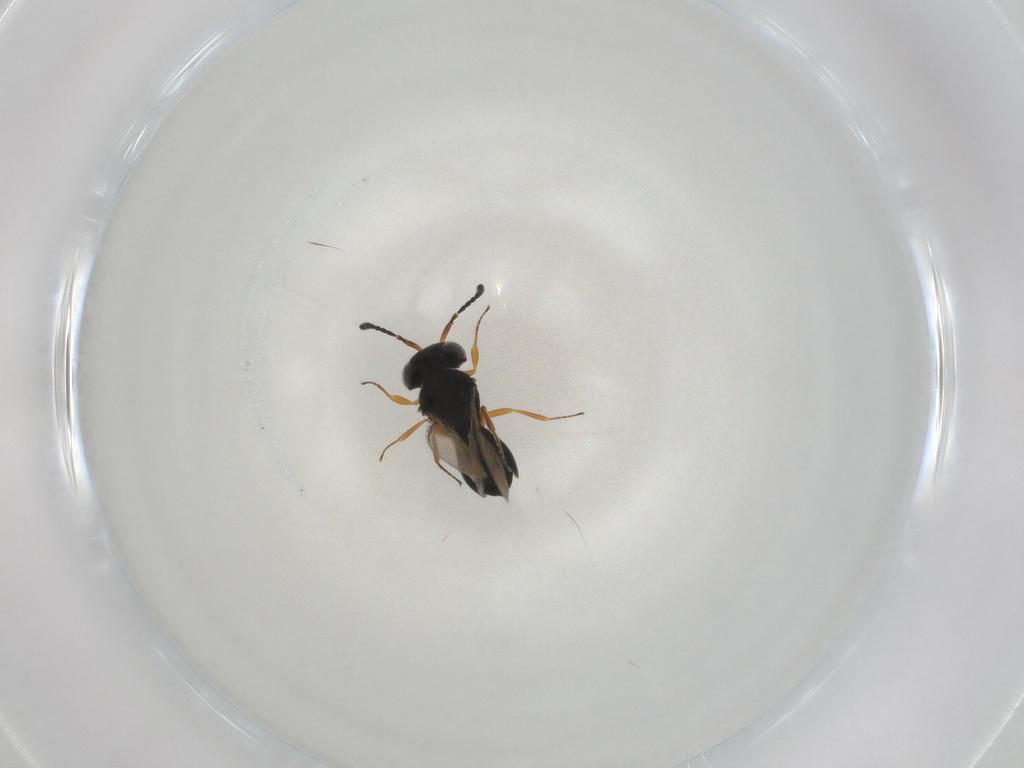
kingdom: Animalia
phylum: Arthropoda
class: Insecta
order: Hymenoptera
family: Scelionidae
